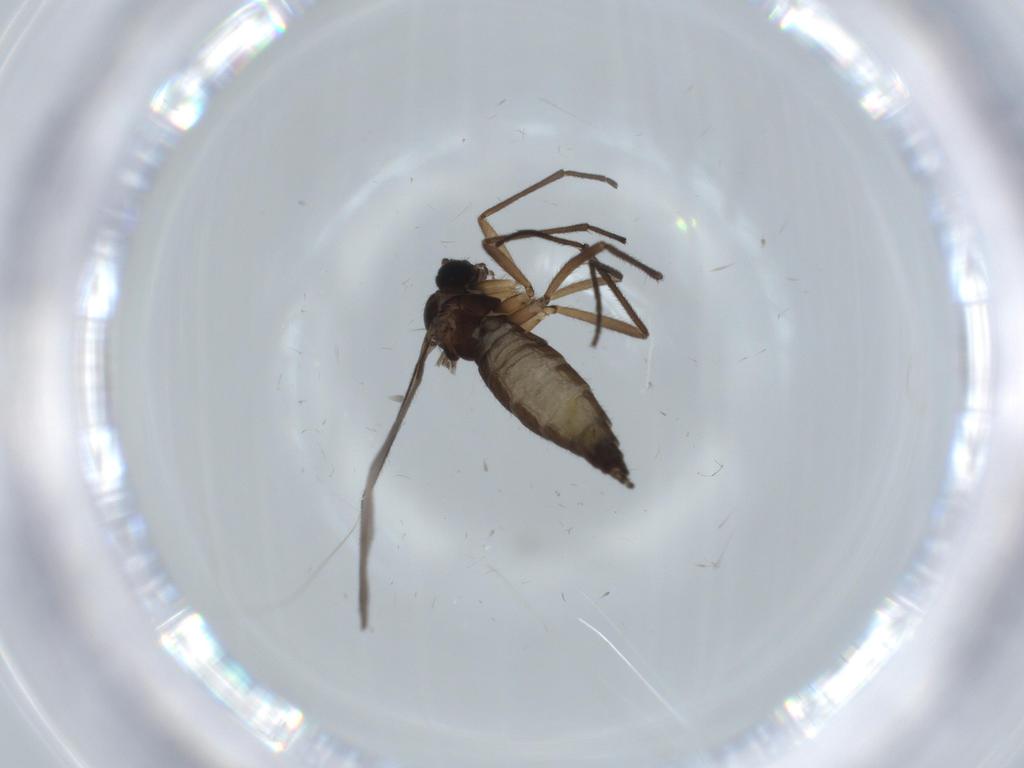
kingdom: Animalia
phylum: Arthropoda
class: Insecta
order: Diptera
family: Sciaridae
